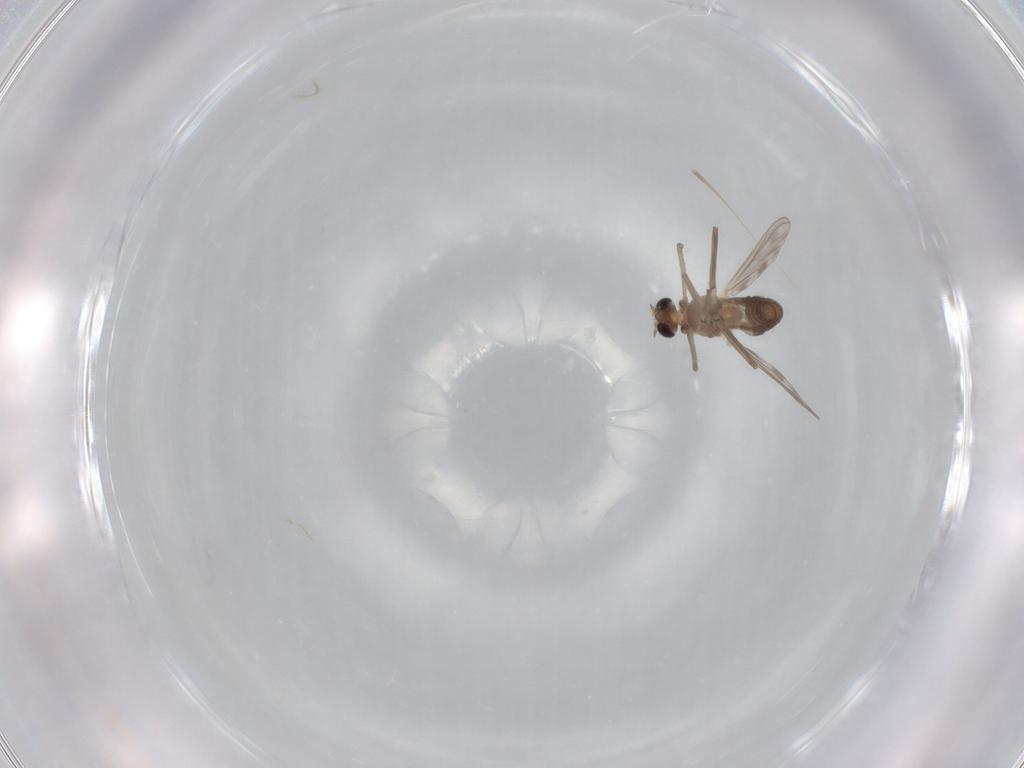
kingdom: Animalia
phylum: Arthropoda
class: Insecta
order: Diptera
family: Chironomidae
